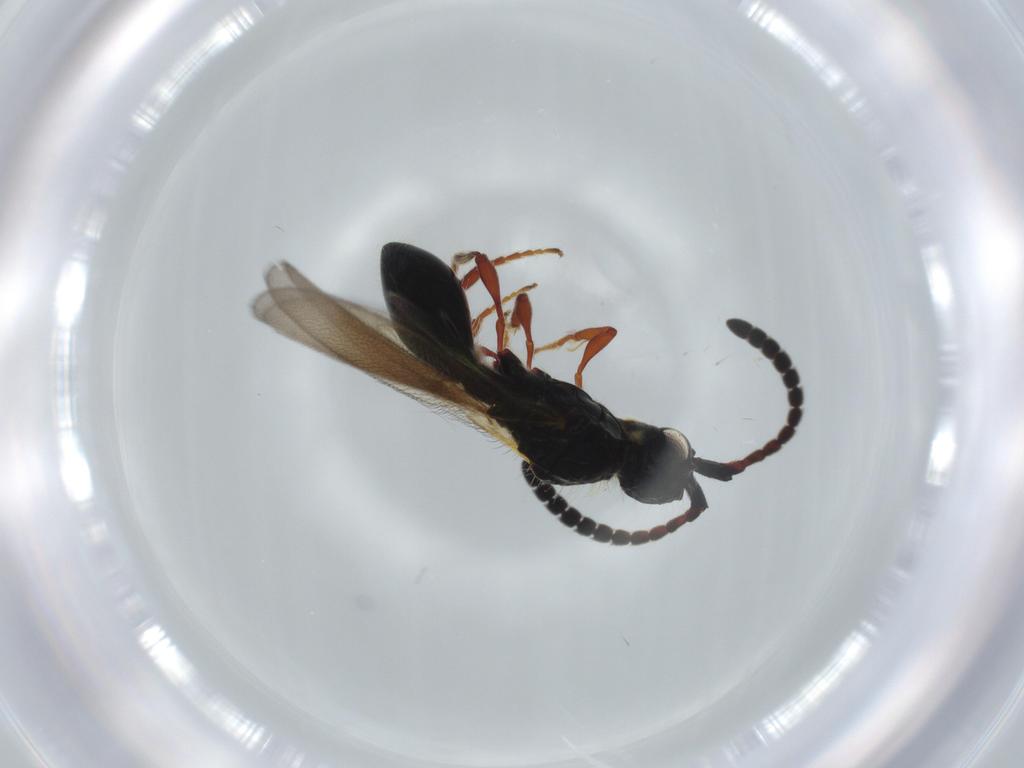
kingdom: Animalia
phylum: Arthropoda
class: Insecta
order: Hymenoptera
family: Diapriidae
